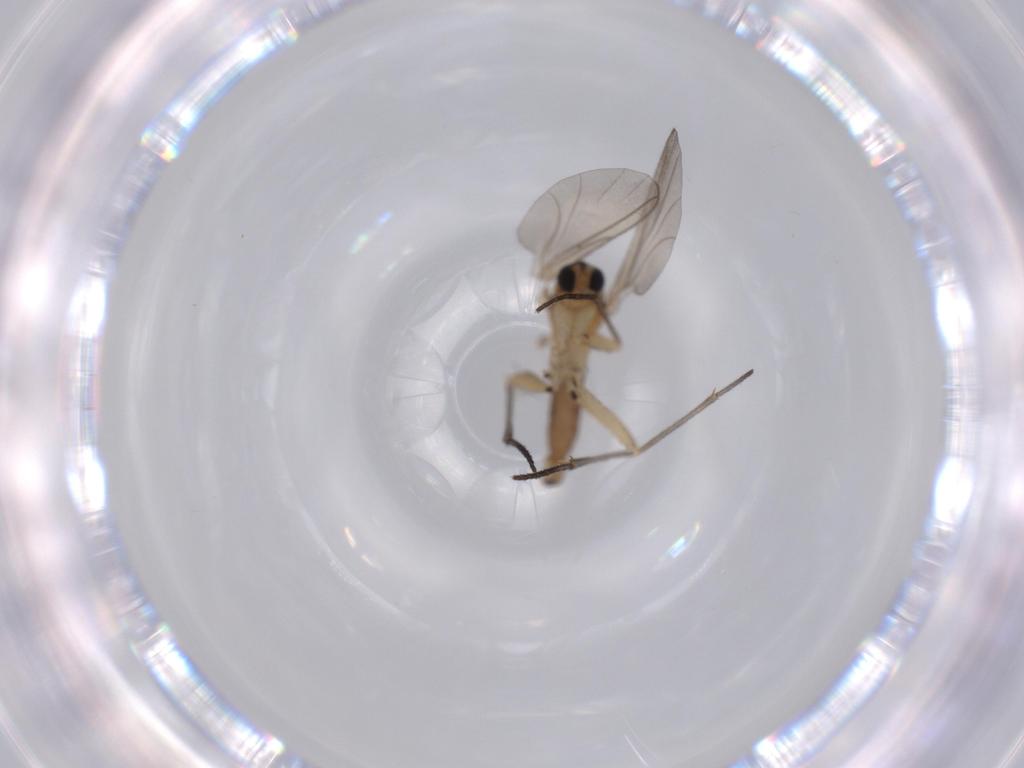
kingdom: Animalia
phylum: Arthropoda
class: Insecta
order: Diptera
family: Sciaridae
